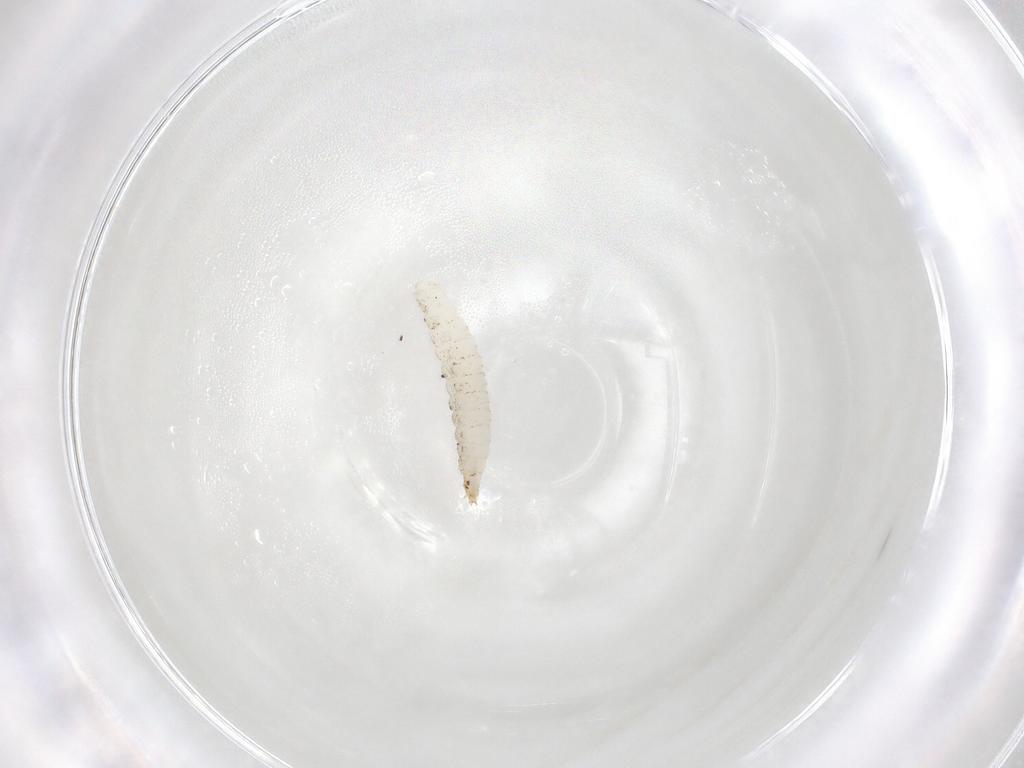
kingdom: Animalia
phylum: Arthropoda
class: Insecta
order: Diptera
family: Stratiomyidae
